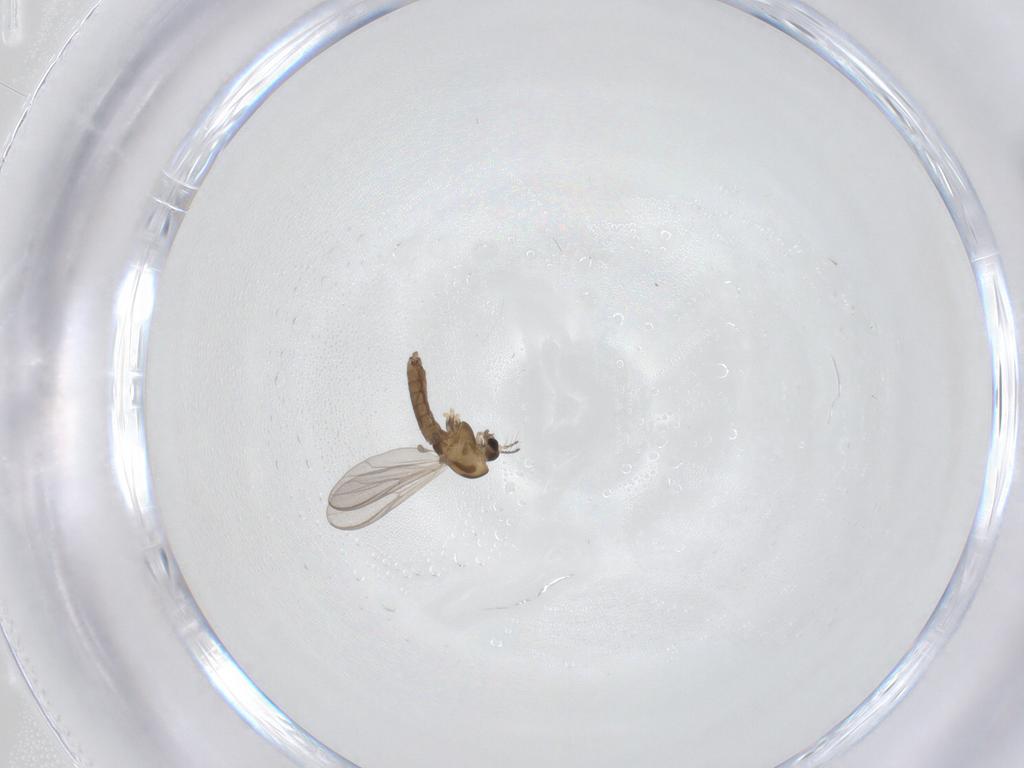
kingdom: Animalia
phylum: Arthropoda
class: Insecta
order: Diptera
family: Chironomidae
